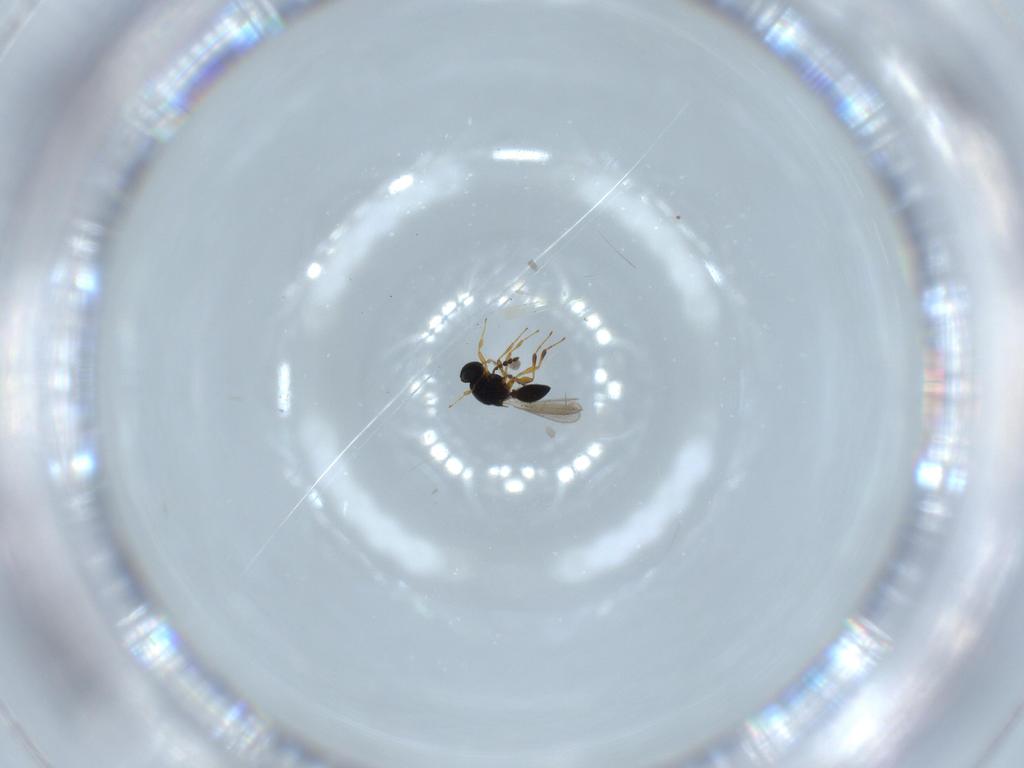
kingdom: Animalia
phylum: Arthropoda
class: Insecta
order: Hymenoptera
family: Platygastridae
